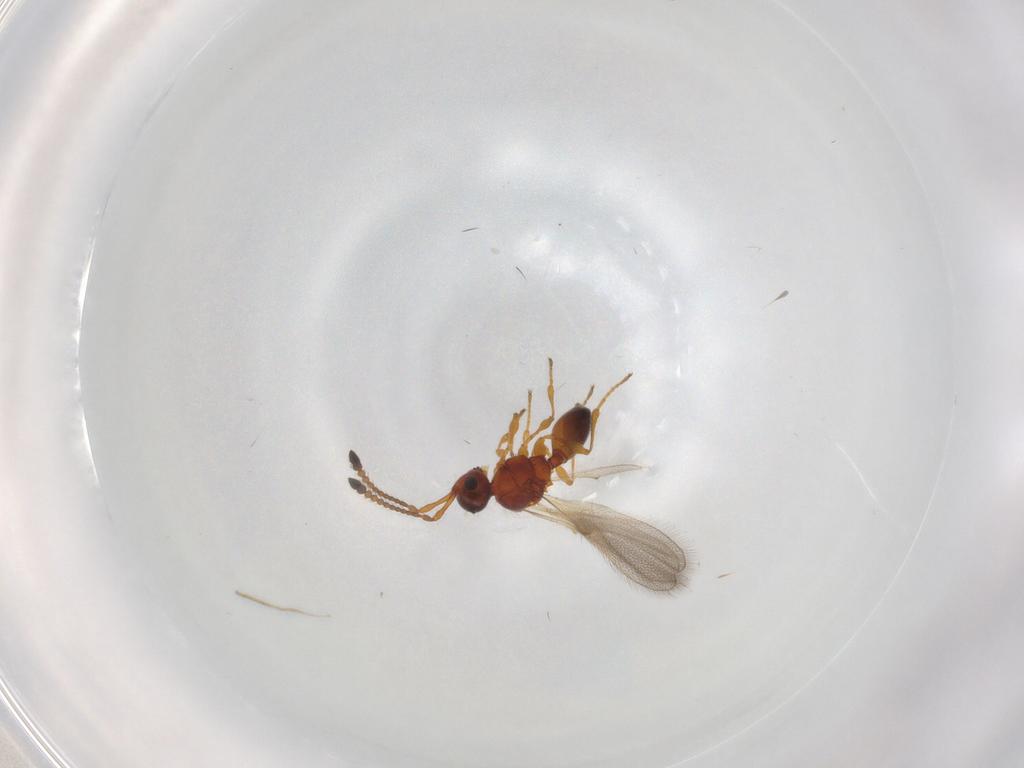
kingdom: Animalia
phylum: Arthropoda
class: Insecta
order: Hymenoptera
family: Diapriidae
